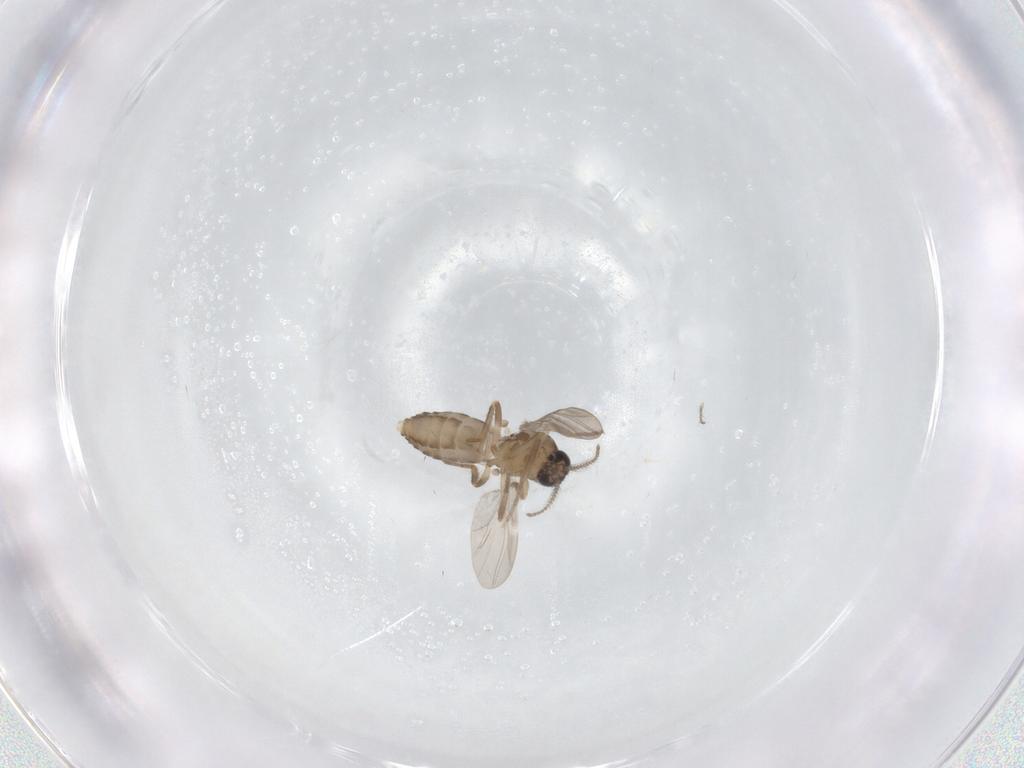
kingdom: Animalia
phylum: Arthropoda
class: Insecta
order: Diptera
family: Ceratopogonidae
